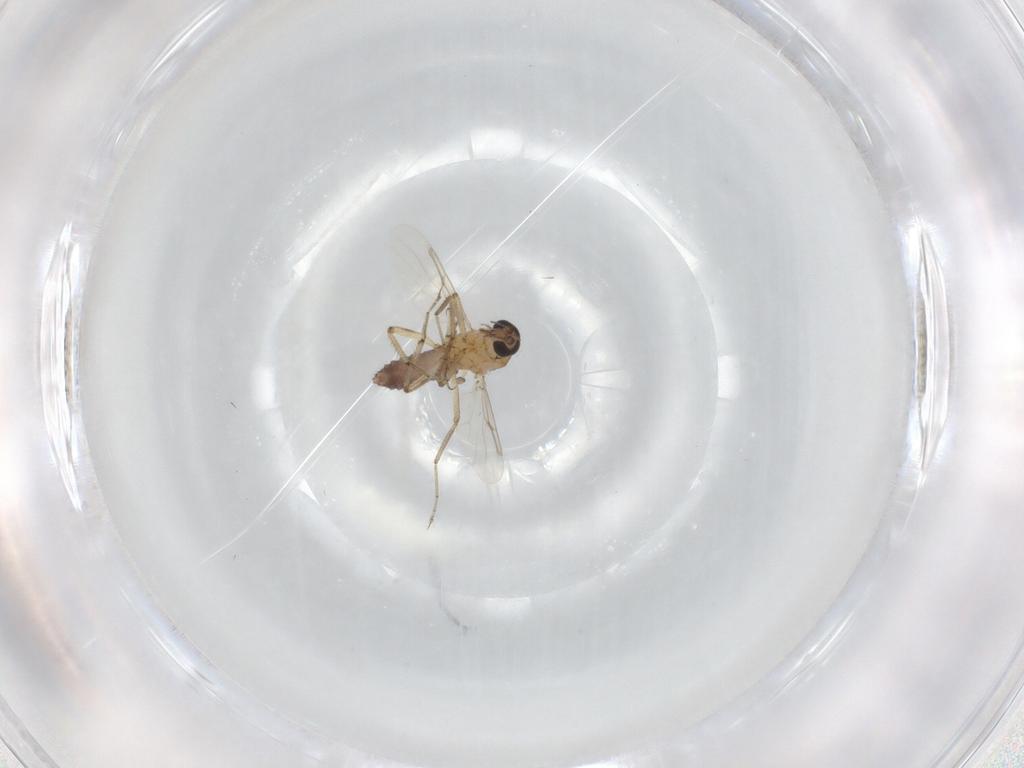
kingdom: Animalia
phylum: Arthropoda
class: Insecta
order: Diptera
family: Ceratopogonidae
